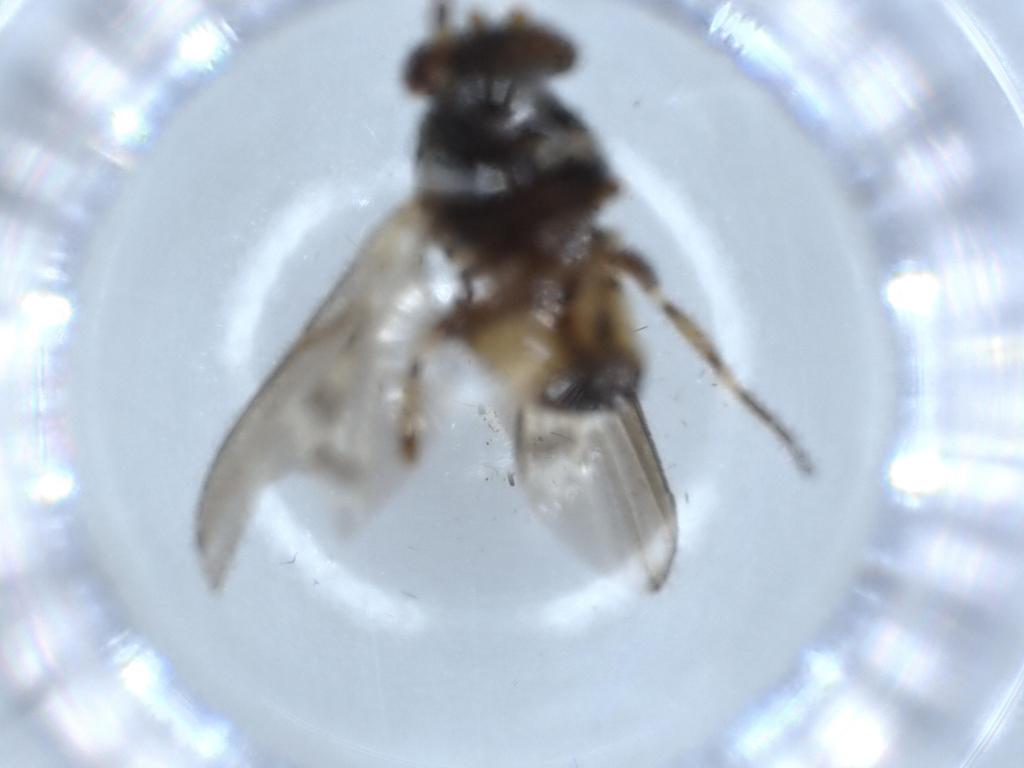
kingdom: Animalia
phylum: Arthropoda
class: Insecta
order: Diptera
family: Odiniidae
